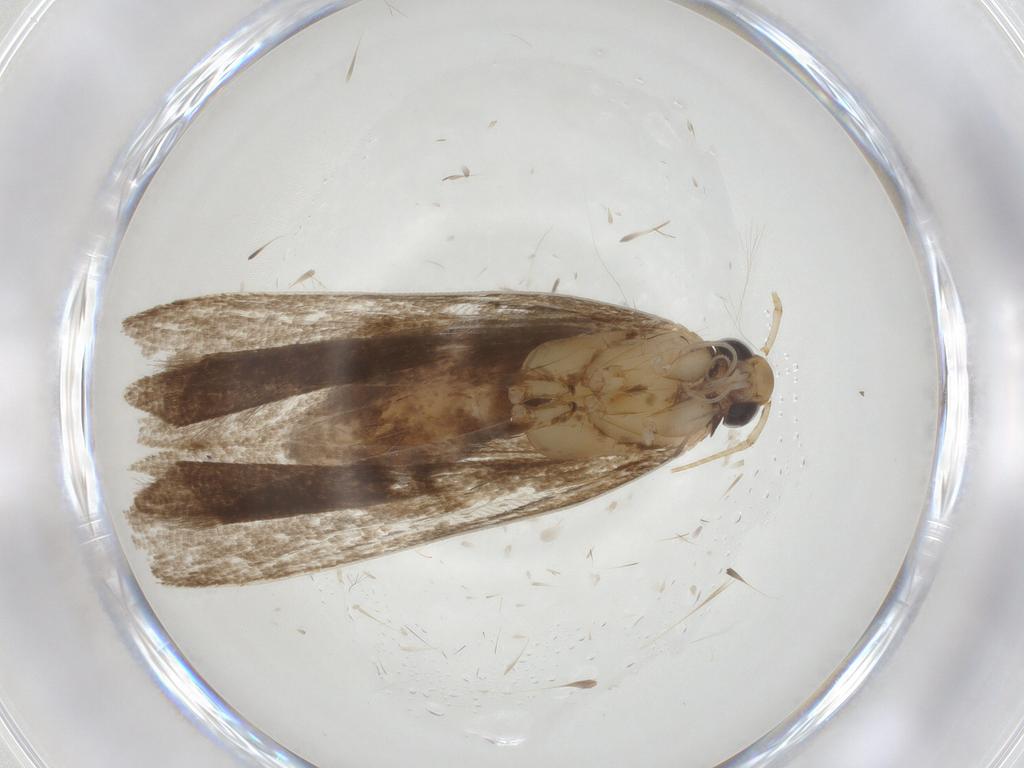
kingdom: Animalia
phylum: Arthropoda
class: Insecta
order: Lepidoptera
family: Gelechiidae
